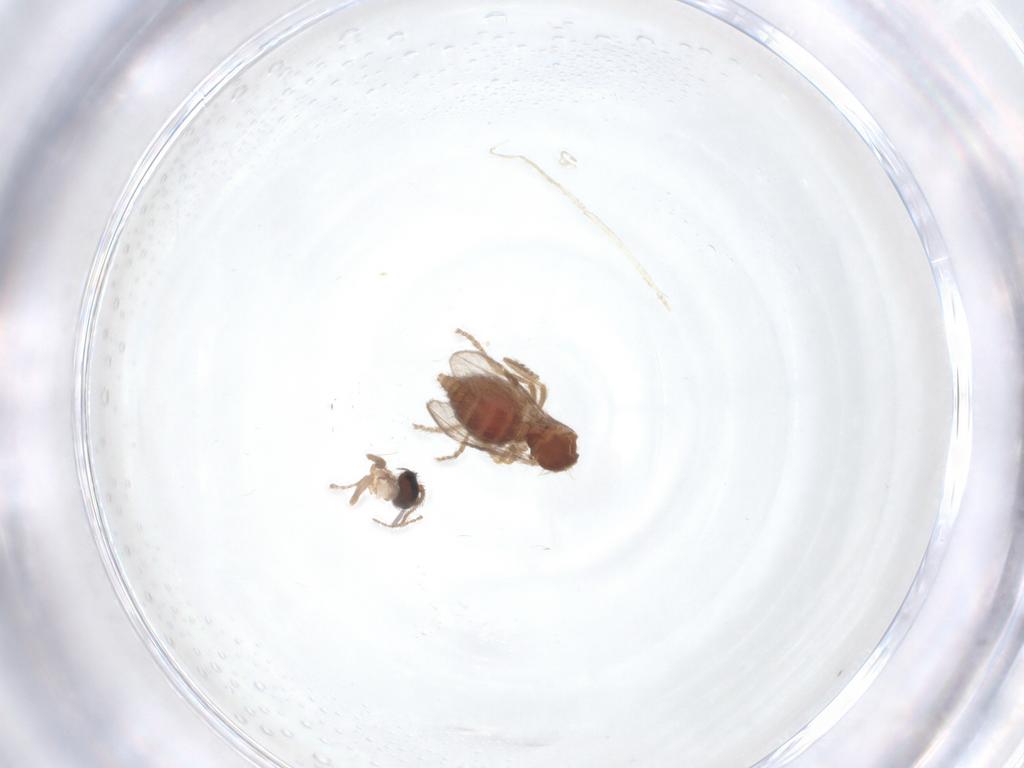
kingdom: Animalia
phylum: Arthropoda
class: Insecta
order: Diptera
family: Ceratopogonidae
